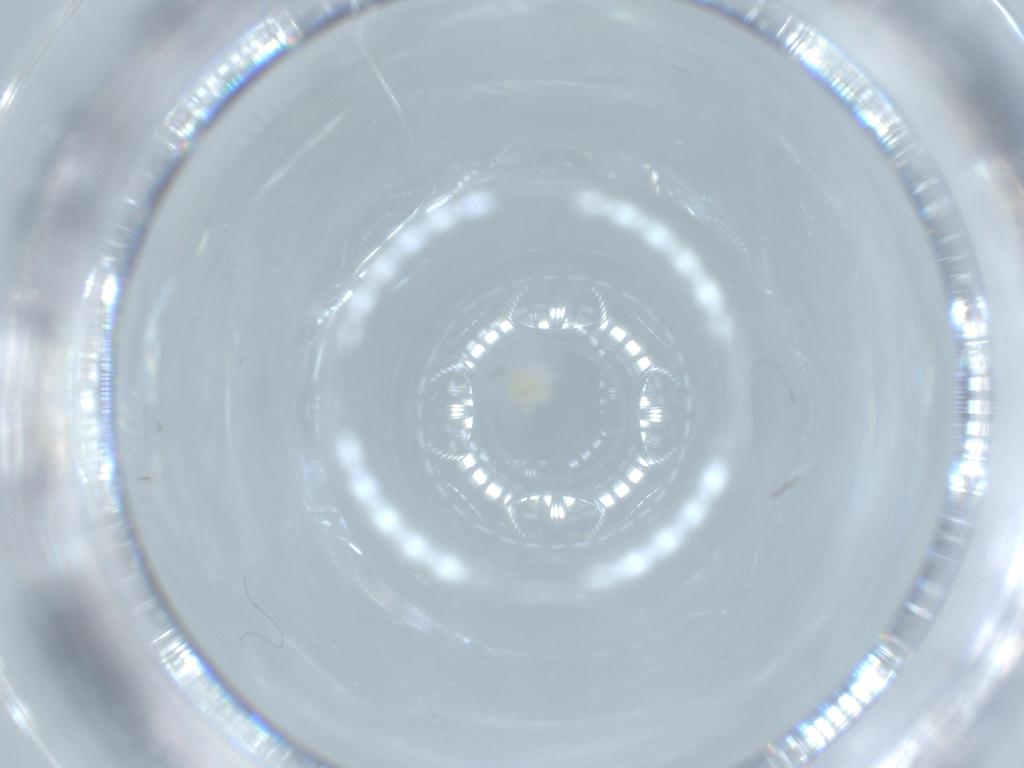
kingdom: Animalia
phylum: Arthropoda
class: Arachnida
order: Trombidiformes
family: Anystidae
